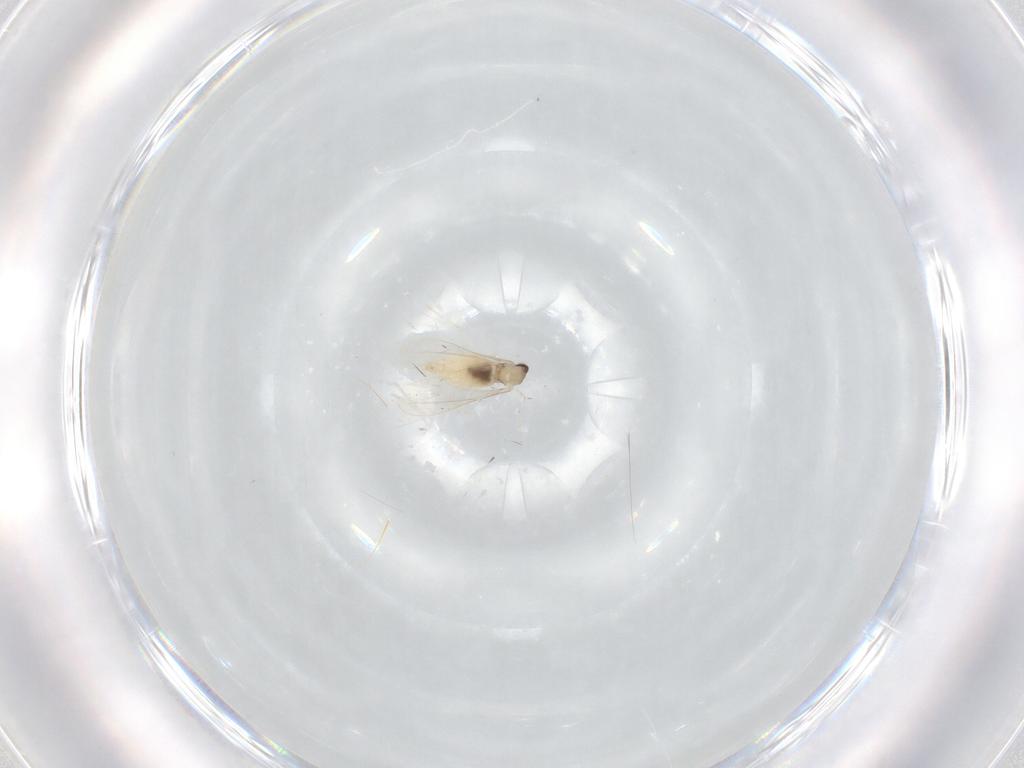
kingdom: Animalia
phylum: Arthropoda
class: Insecta
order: Diptera
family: Cecidomyiidae
